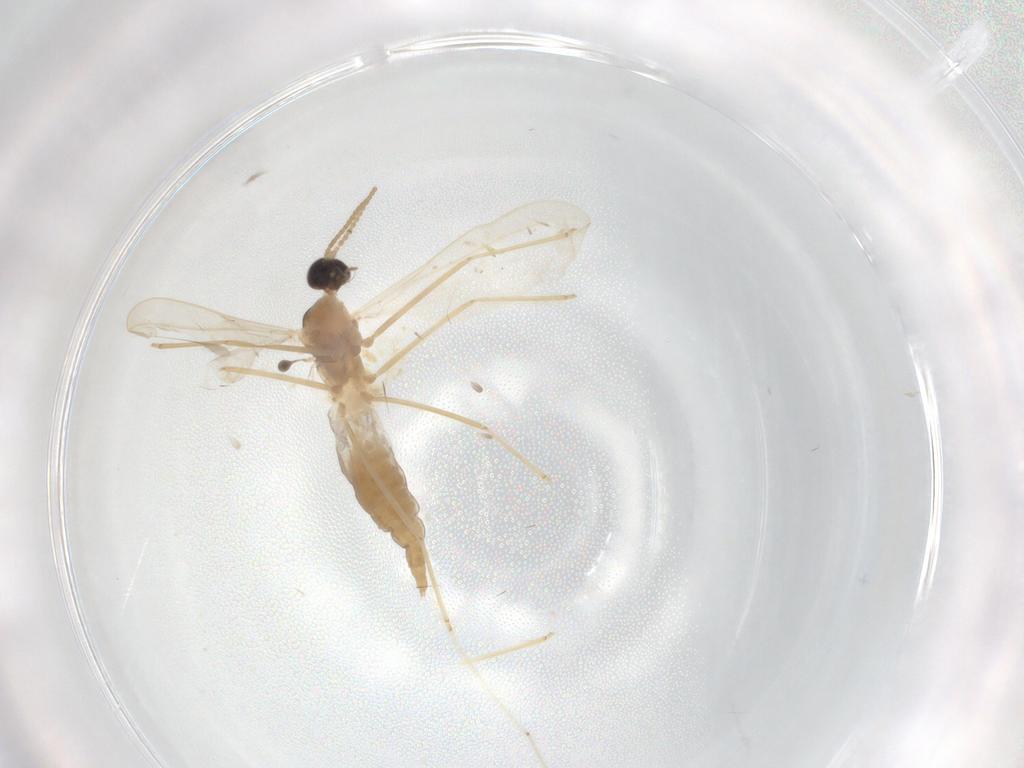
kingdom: Animalia
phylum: Arthropoda
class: Insecta
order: Diptera
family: Cecidomyiidae
